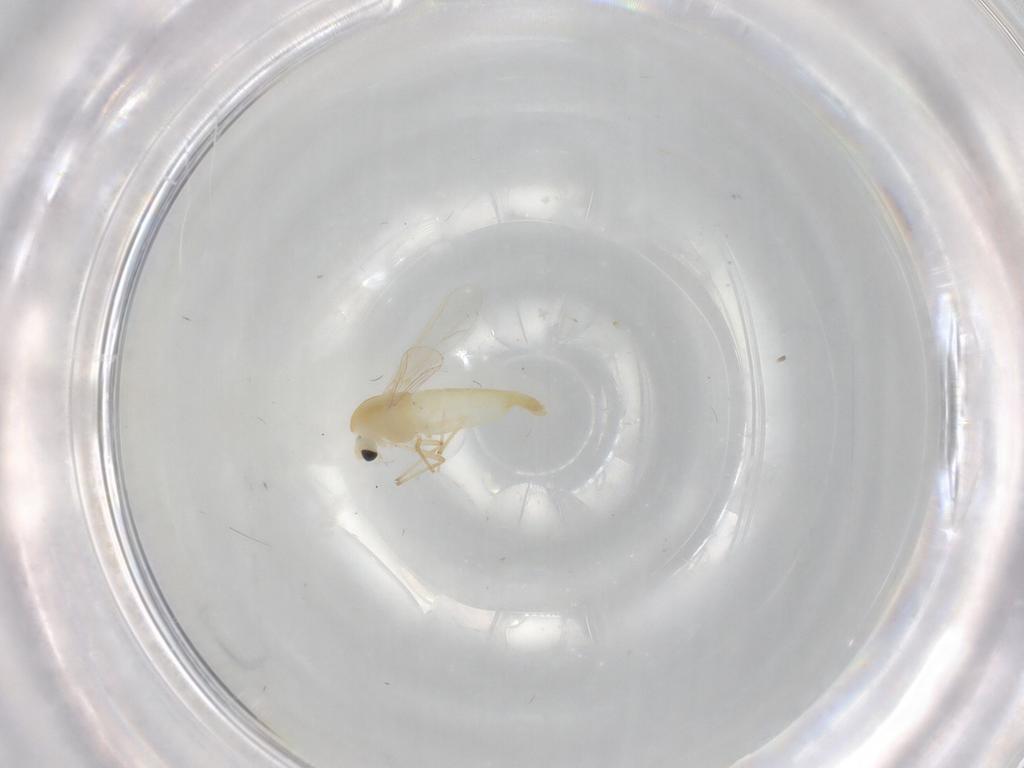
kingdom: Animalia
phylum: Arthropoda
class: Insecta
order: Diptera
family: Chironomidae
